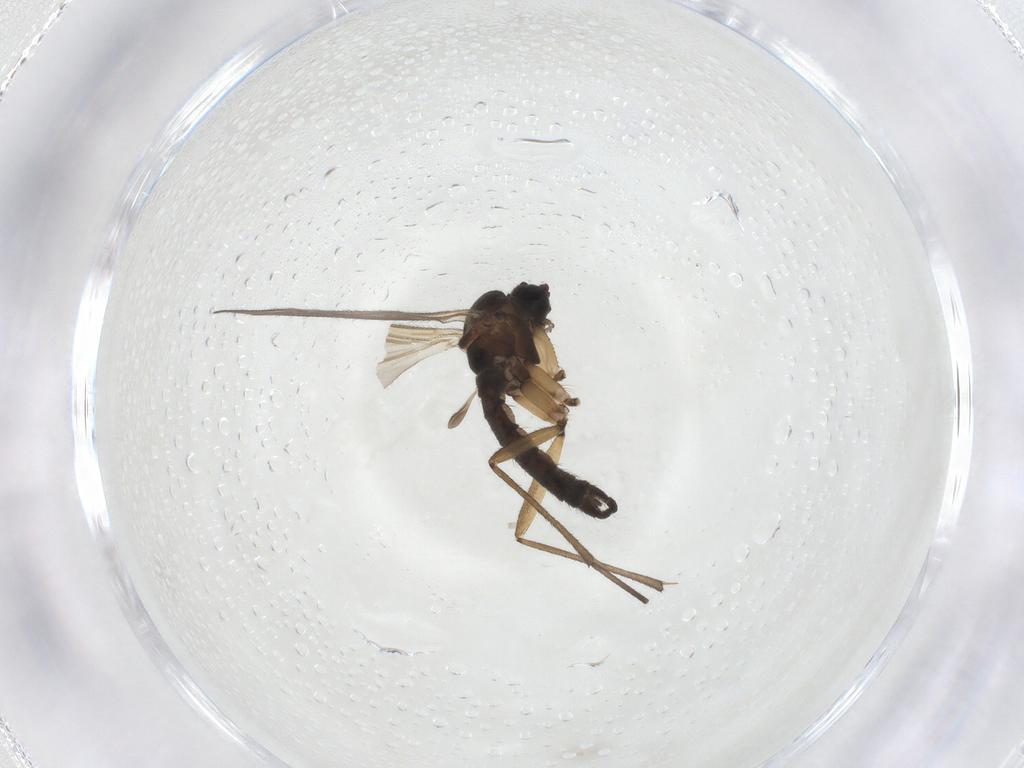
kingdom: Animalia
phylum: Arthropoda
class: Insecta
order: Diptera
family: Sciaridae
